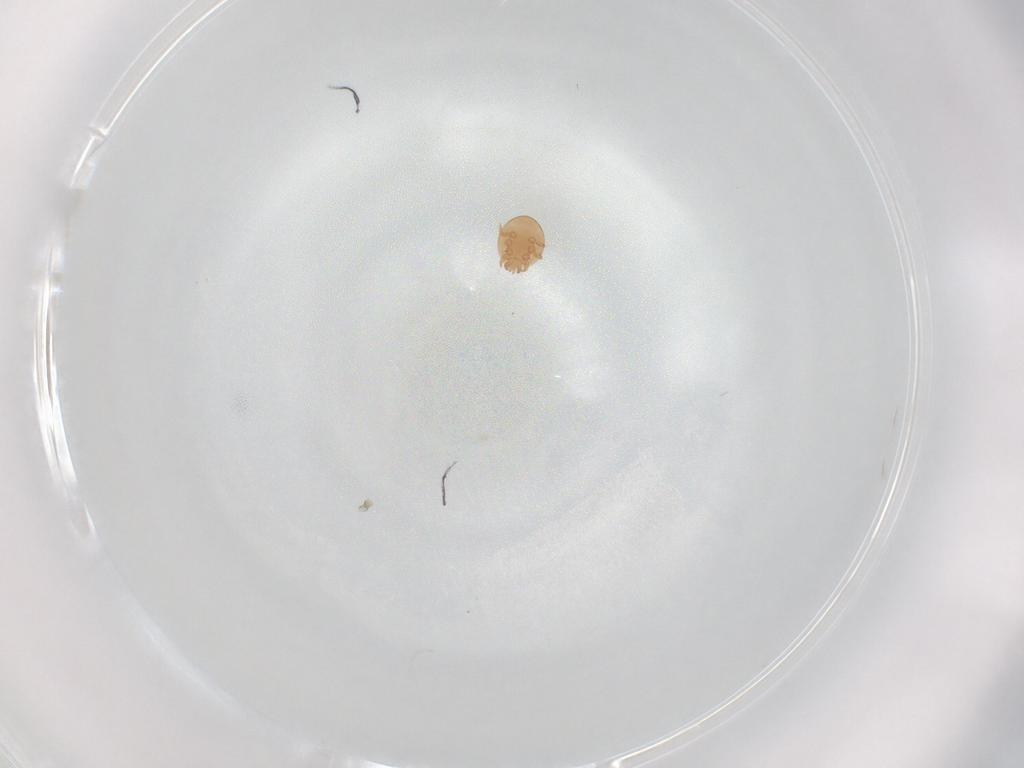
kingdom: Animalia
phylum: Arthropoda
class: Arachnida
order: Mesostigmata
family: Trematuridae
